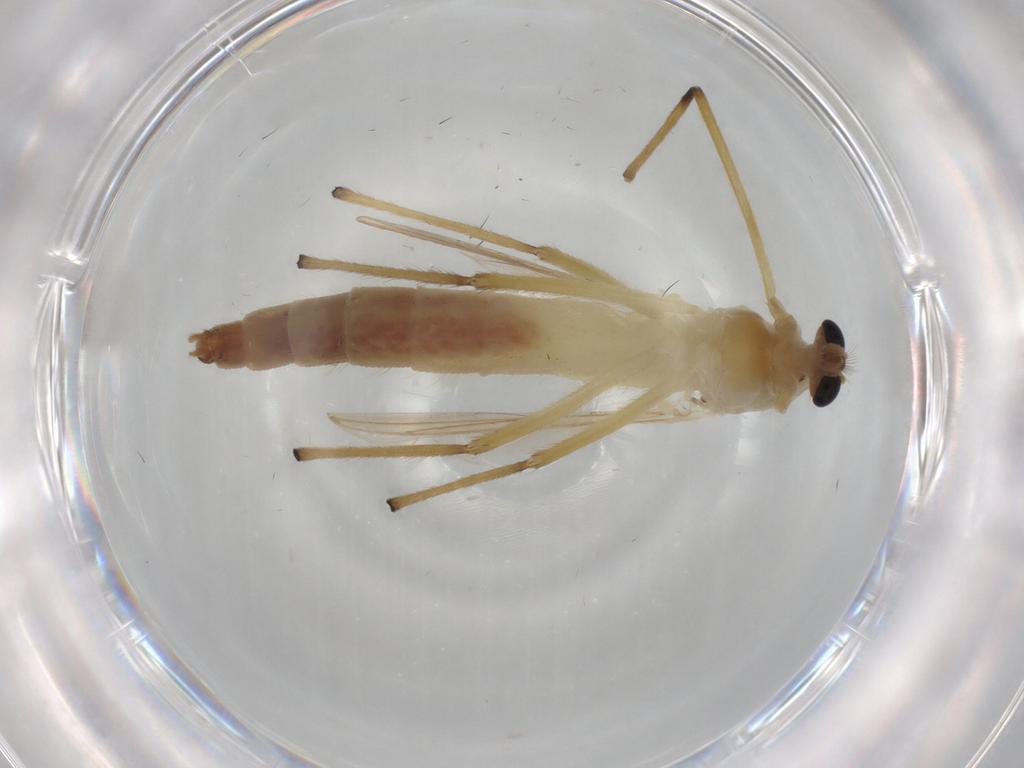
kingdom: Animalia
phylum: Arthropoda
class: Insecta
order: Diptera
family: Chironomidae
